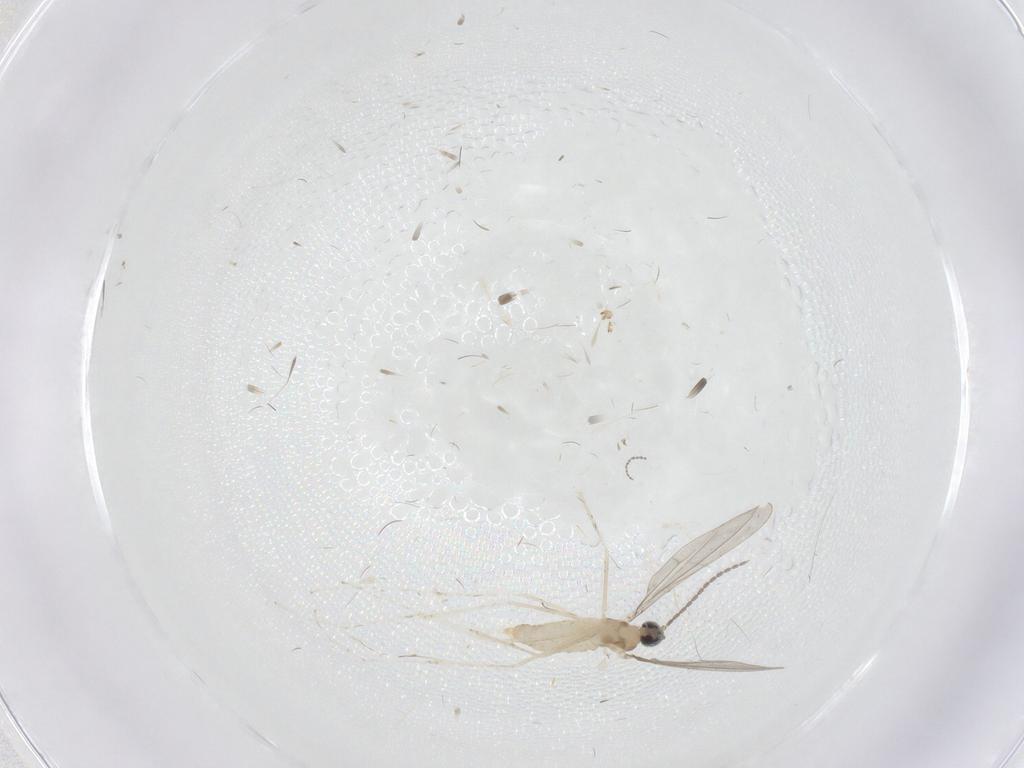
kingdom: Animalia
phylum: Arthropoda
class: Insecta
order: Diptera
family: Cecidomyiidae
